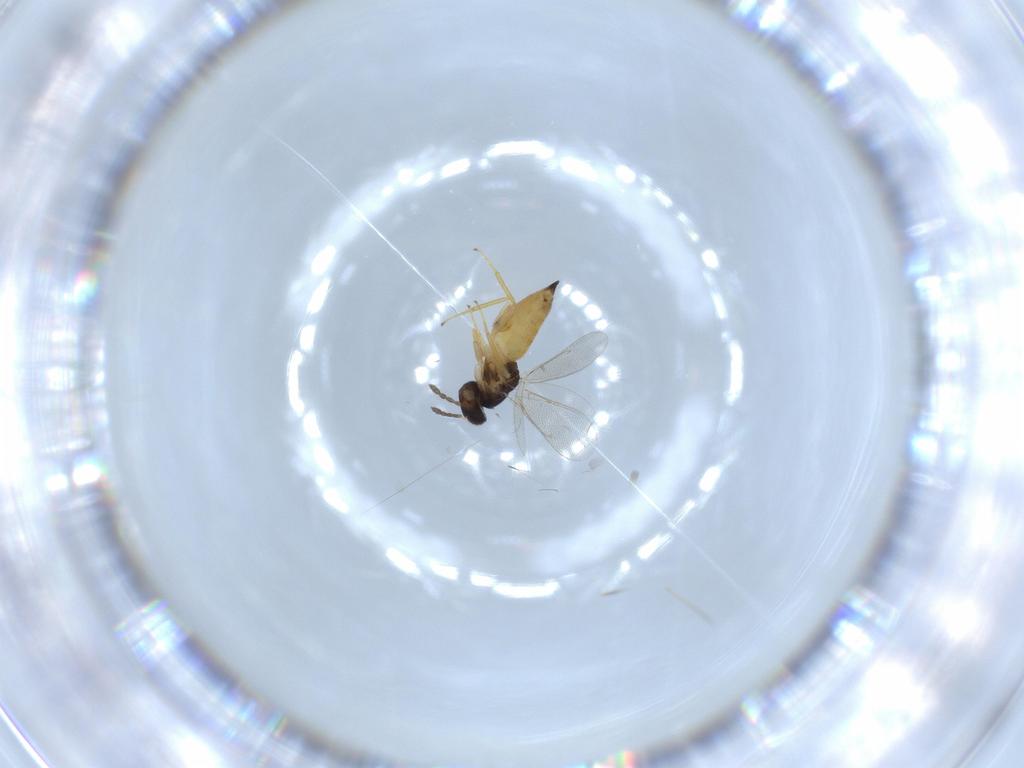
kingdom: Animalia
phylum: Arthropoda
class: Insecta
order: Hymenoptera
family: Eulophidae
